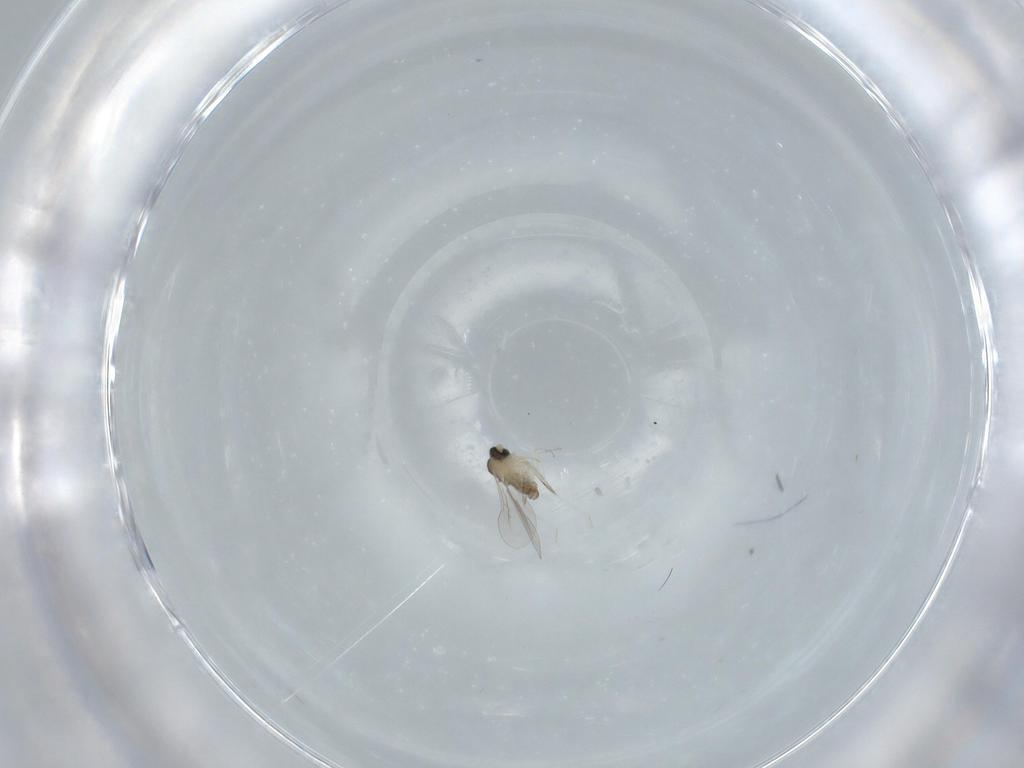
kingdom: Animalia
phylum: Arthropoda
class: Insecta
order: Diptera
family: Cecidomyiidae
